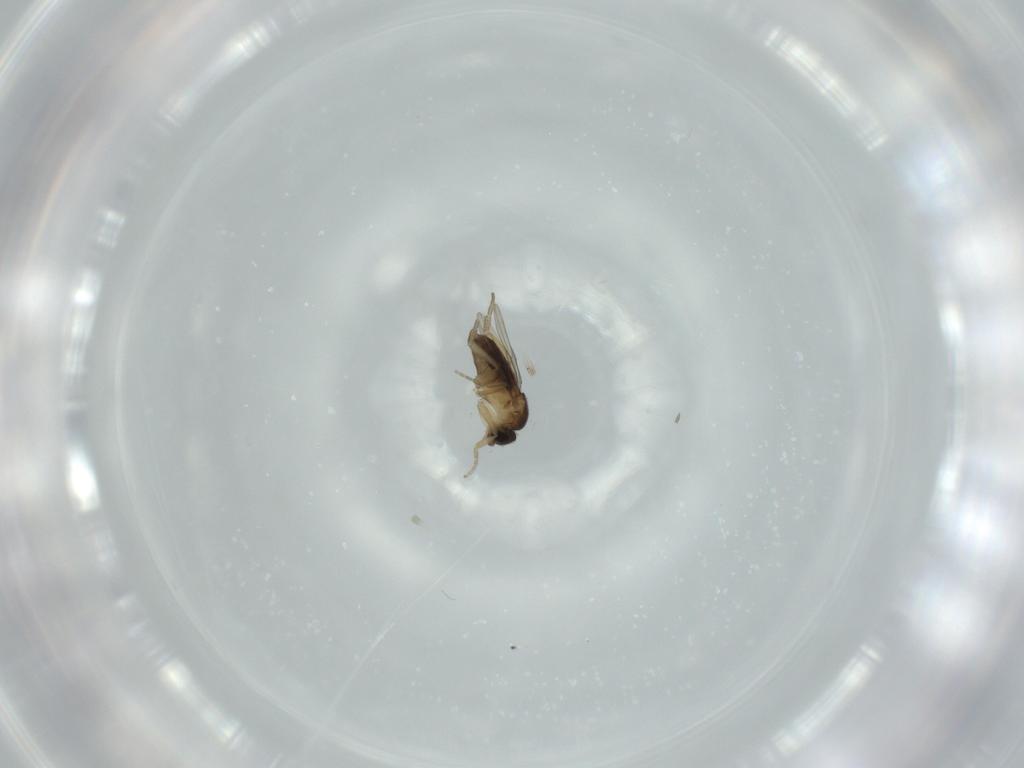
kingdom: Animalia
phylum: Arthropoda
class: Insecta
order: Diptera
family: Phoridae
